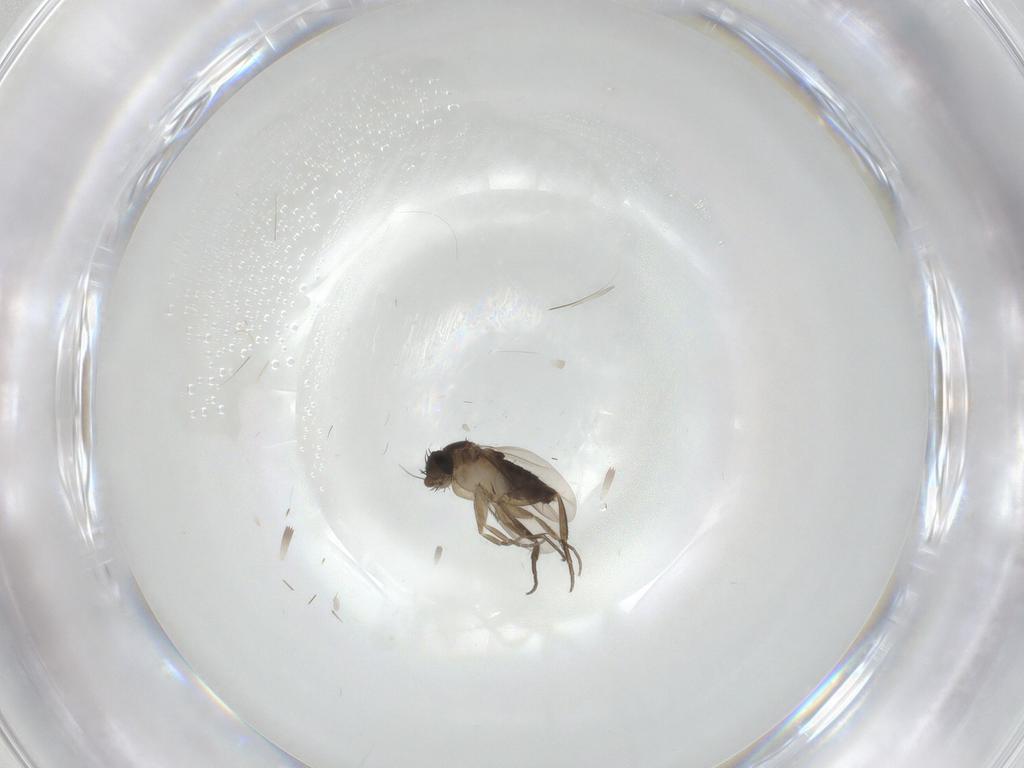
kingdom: Animalia
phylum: Arthropoda
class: Insecta
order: Diptera
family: Phoridae
